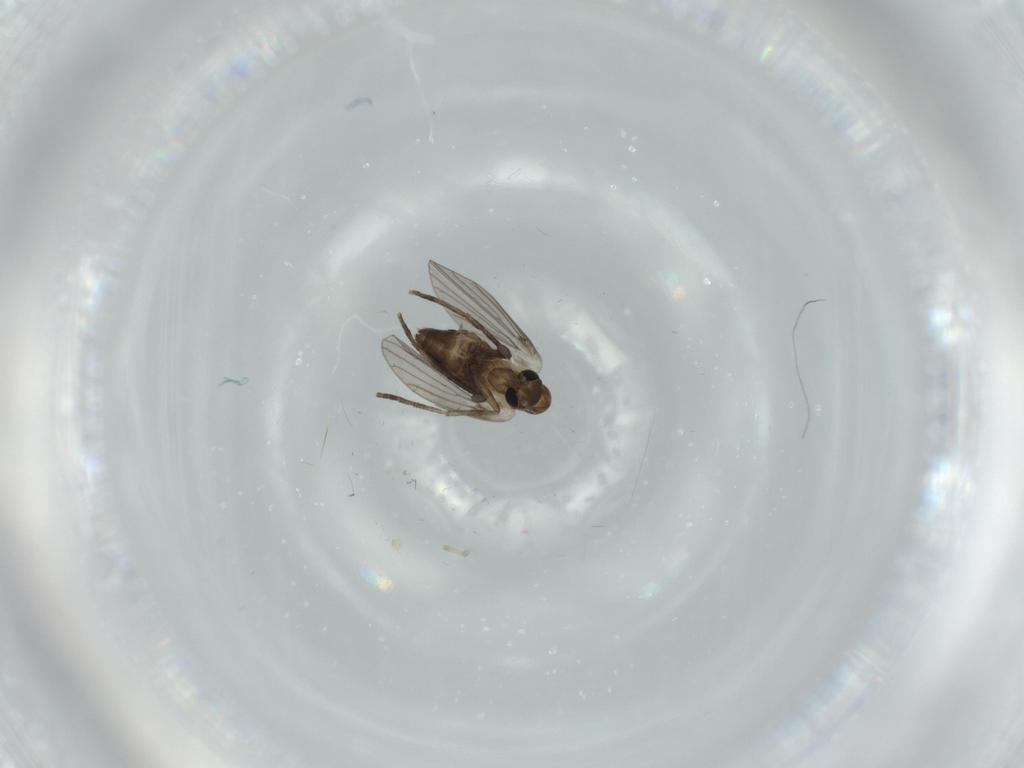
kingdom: Animalia
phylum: Arthropoda
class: Insecta
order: Diptera
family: Psychodidae
